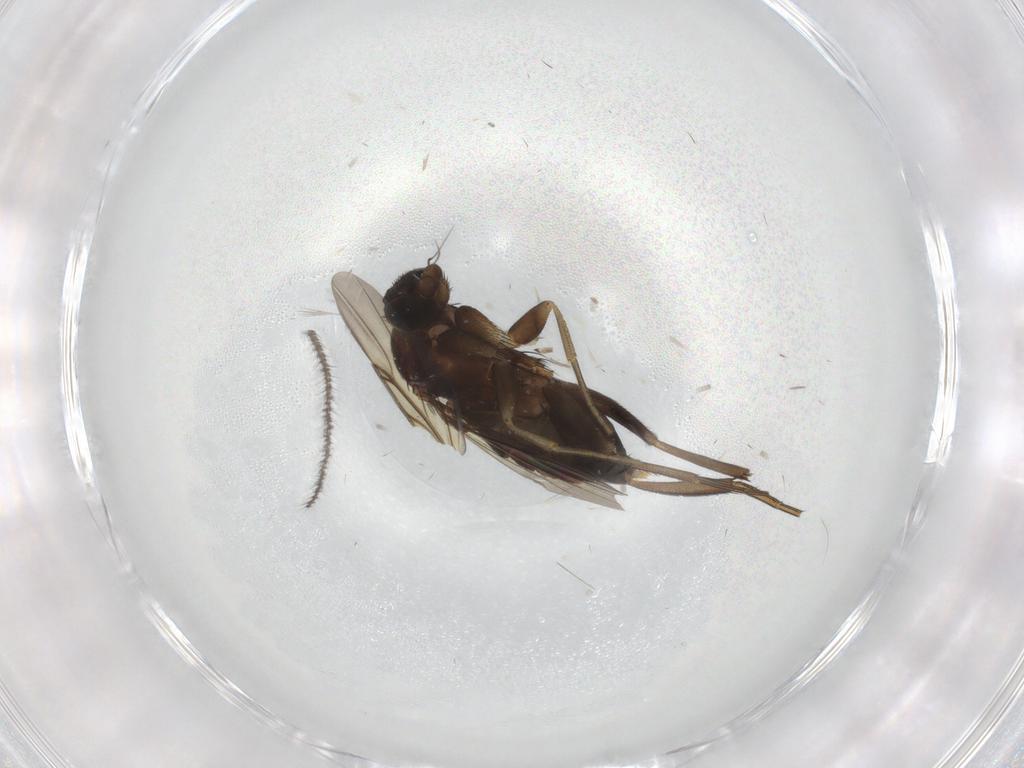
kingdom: Animalia
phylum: Arthropoda
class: Insecta
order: Diptera
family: Phoridae
